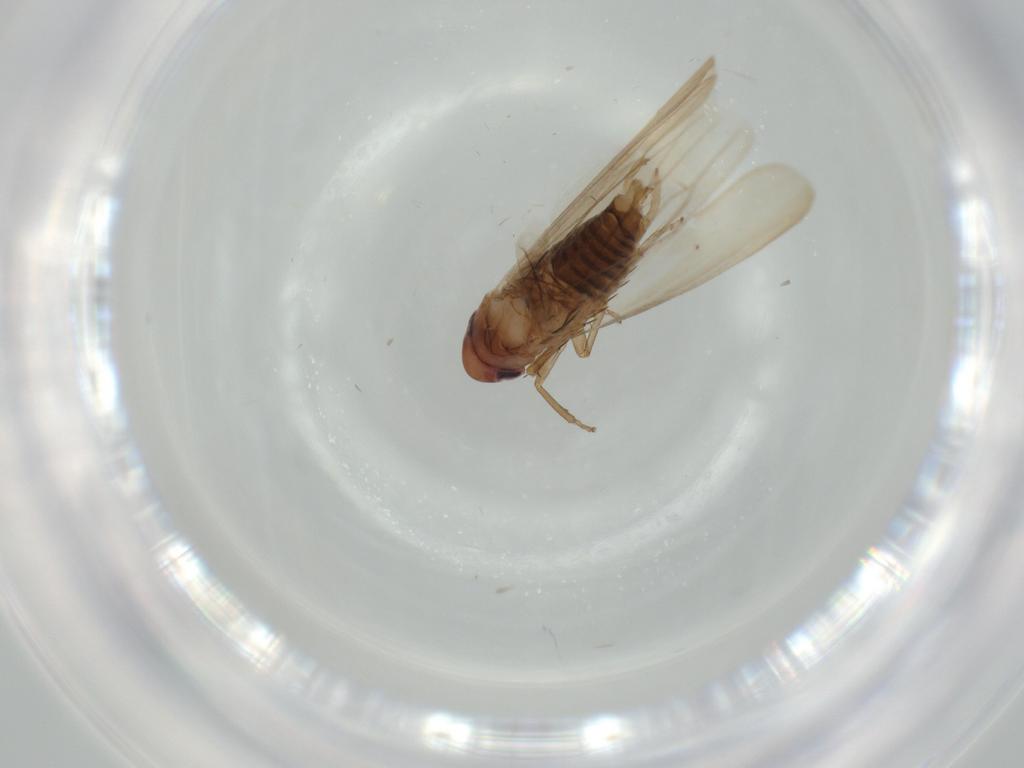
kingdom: Animalia
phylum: Arthropoda
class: Insecta
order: Hemiptera
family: Cicadellidae
